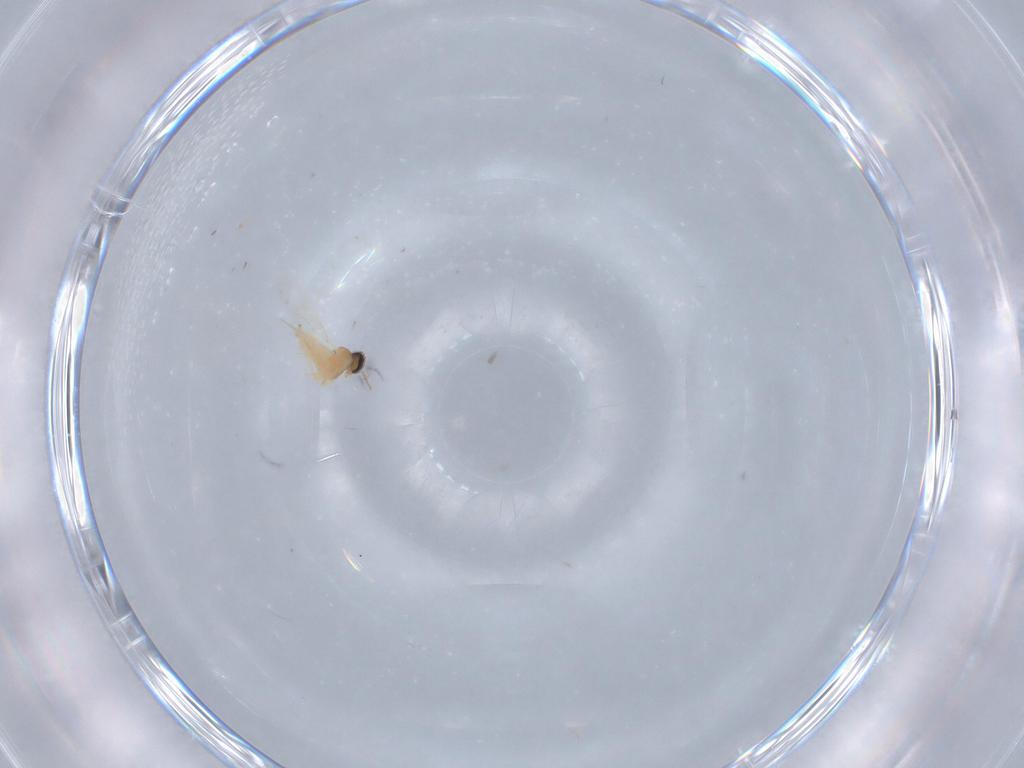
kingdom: Animalia
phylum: Arthropoda
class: Insecta
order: Diptera
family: Cecidomyiidae
